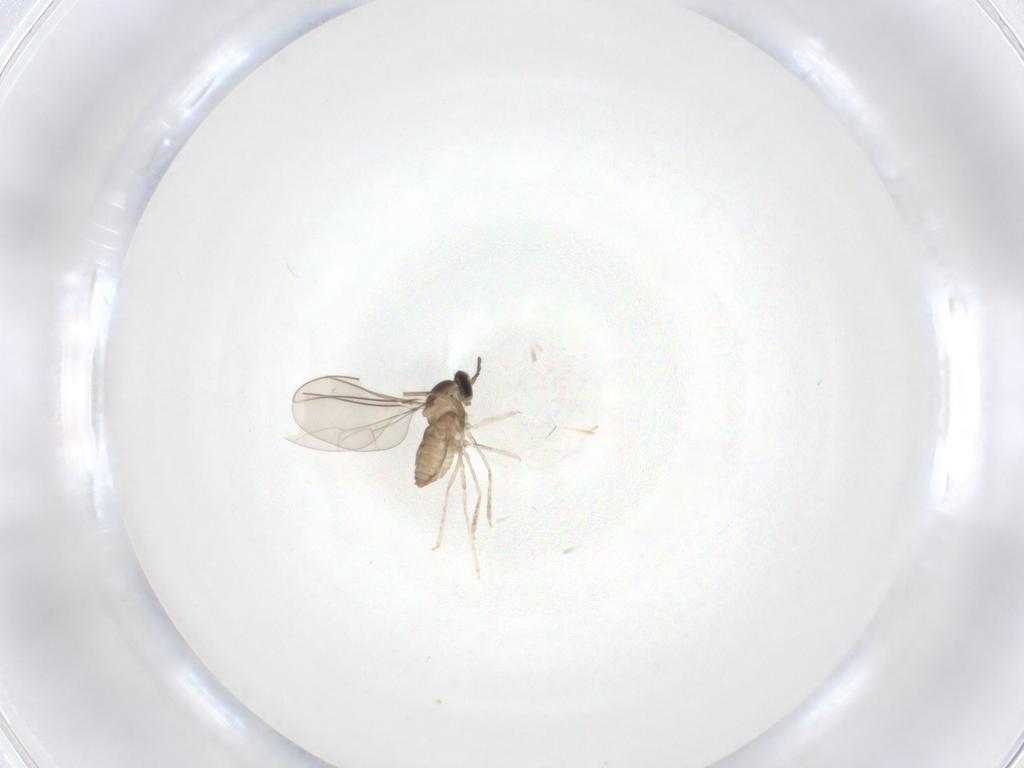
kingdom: Animalia
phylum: Arthropoda
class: Insecta
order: Diptera
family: Cecidomyiidae
